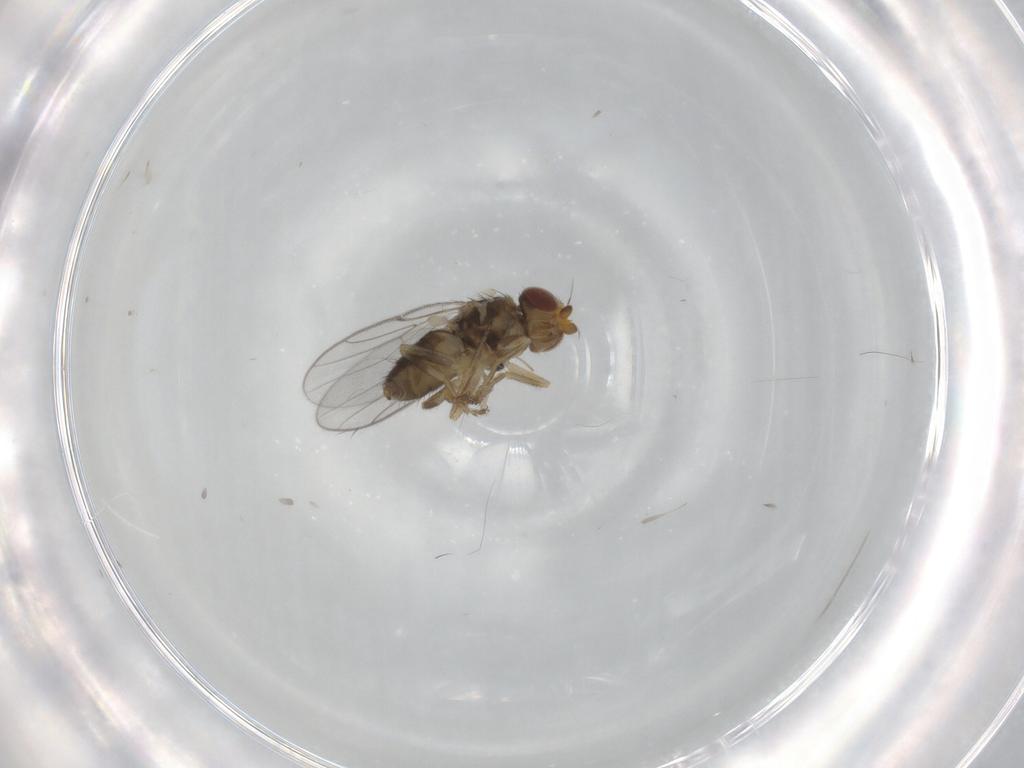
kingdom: Animalia
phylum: Arthropoda
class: Insecta
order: Diptera
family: Chloropidae
